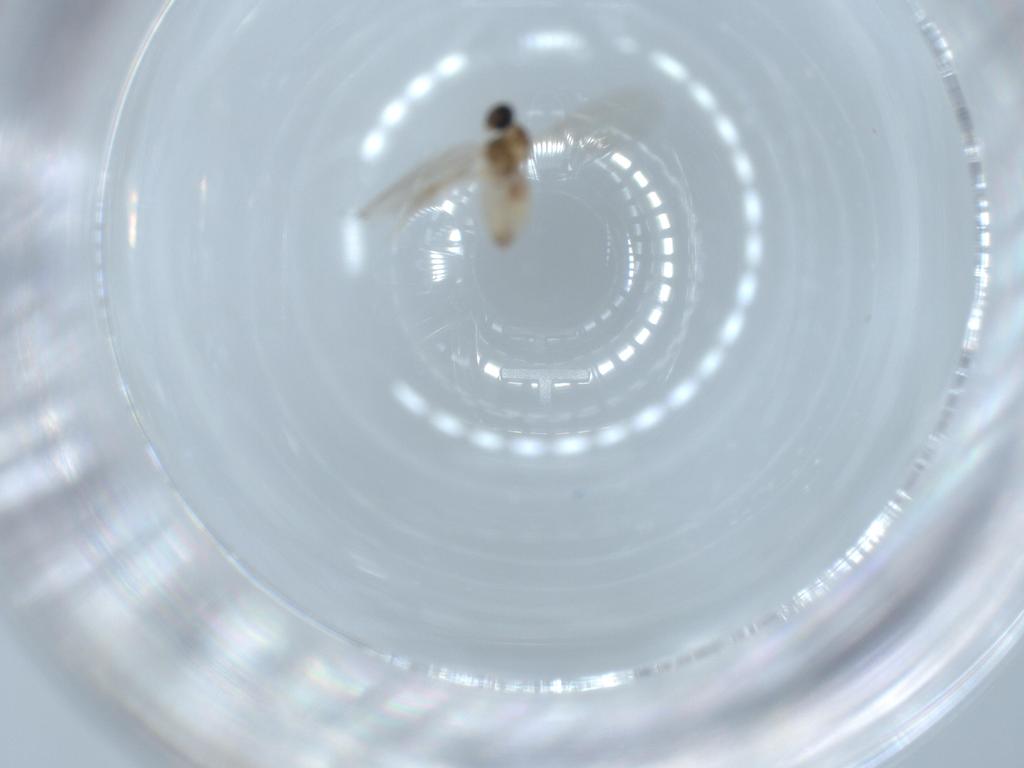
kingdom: Animalia
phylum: Arthropoda
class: Insecta
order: Diptera
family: Cecidomyiidae
